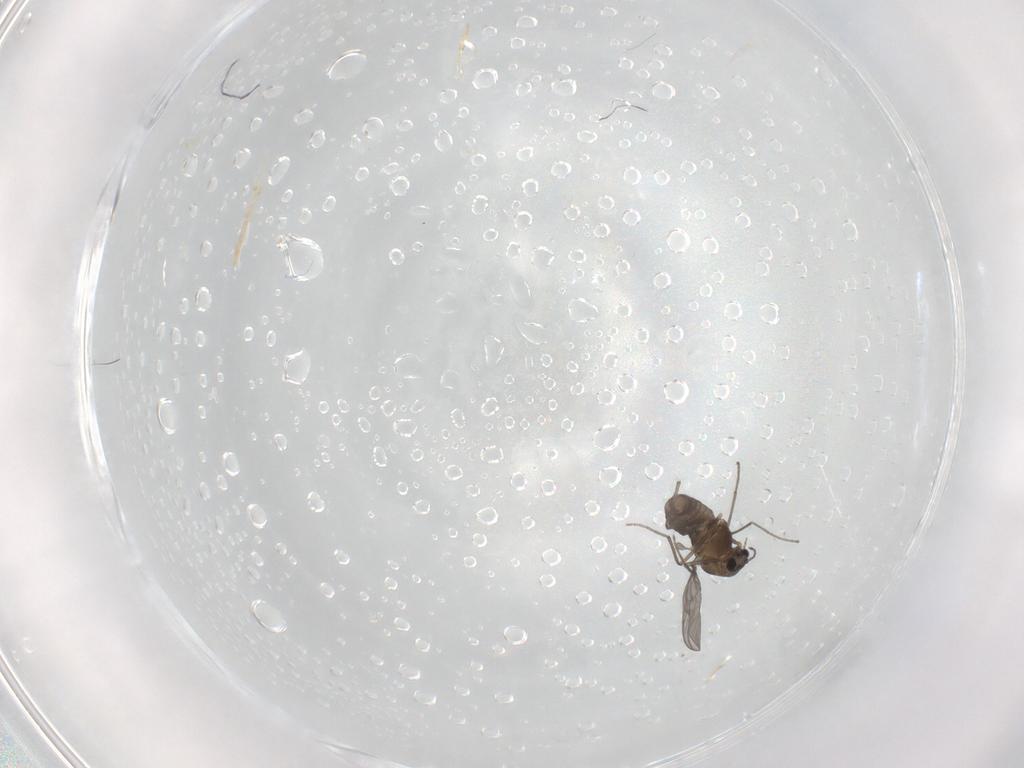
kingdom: Animalia
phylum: Arthropoda
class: Insecta
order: Diptera
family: Chironomidae
